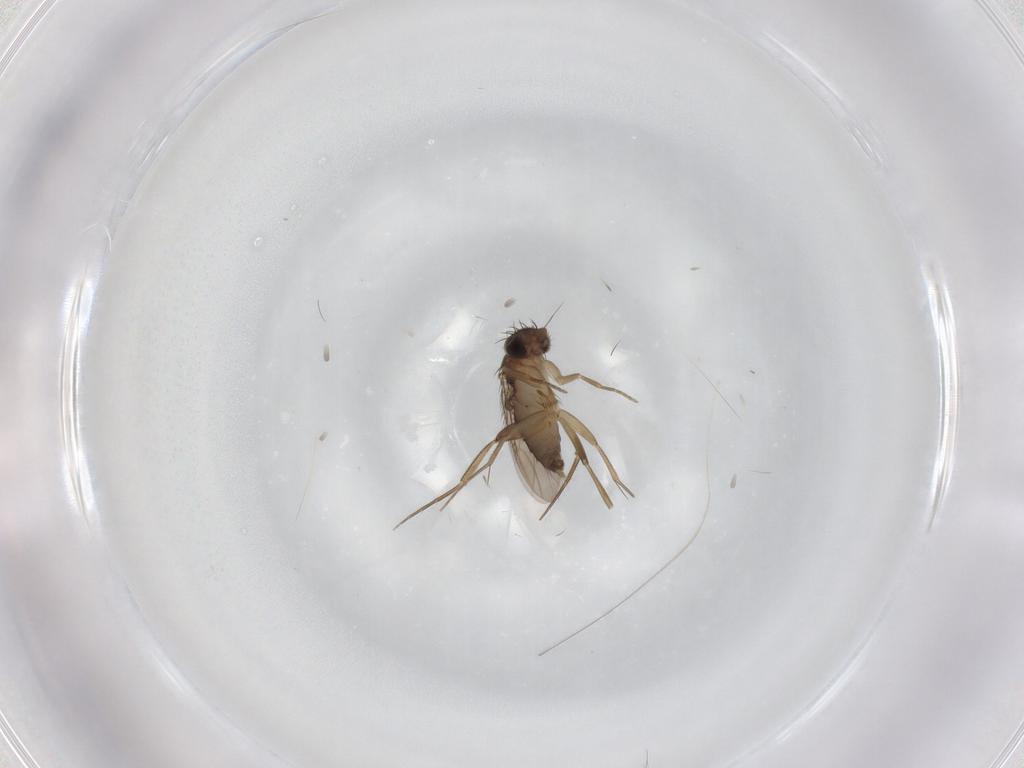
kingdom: Animalia
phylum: Arthropoda
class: Insecta
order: Diptera
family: Phoridae
